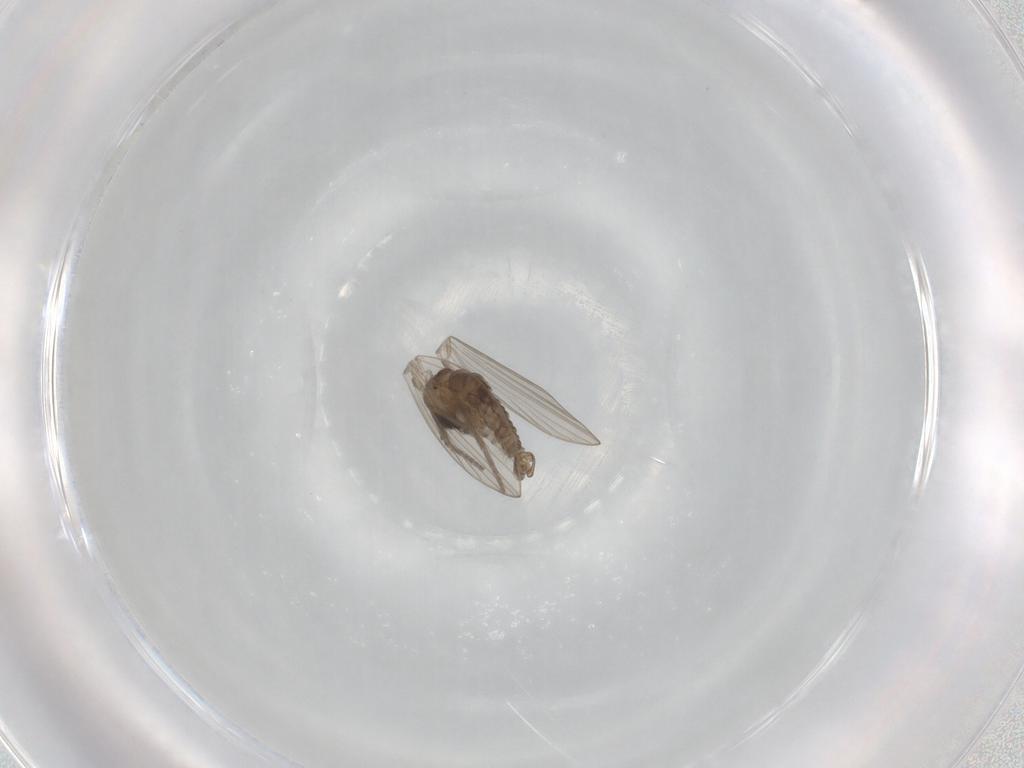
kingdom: Animalia
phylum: Arthropoda
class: Insecta
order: Diptera
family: Psychodidae
